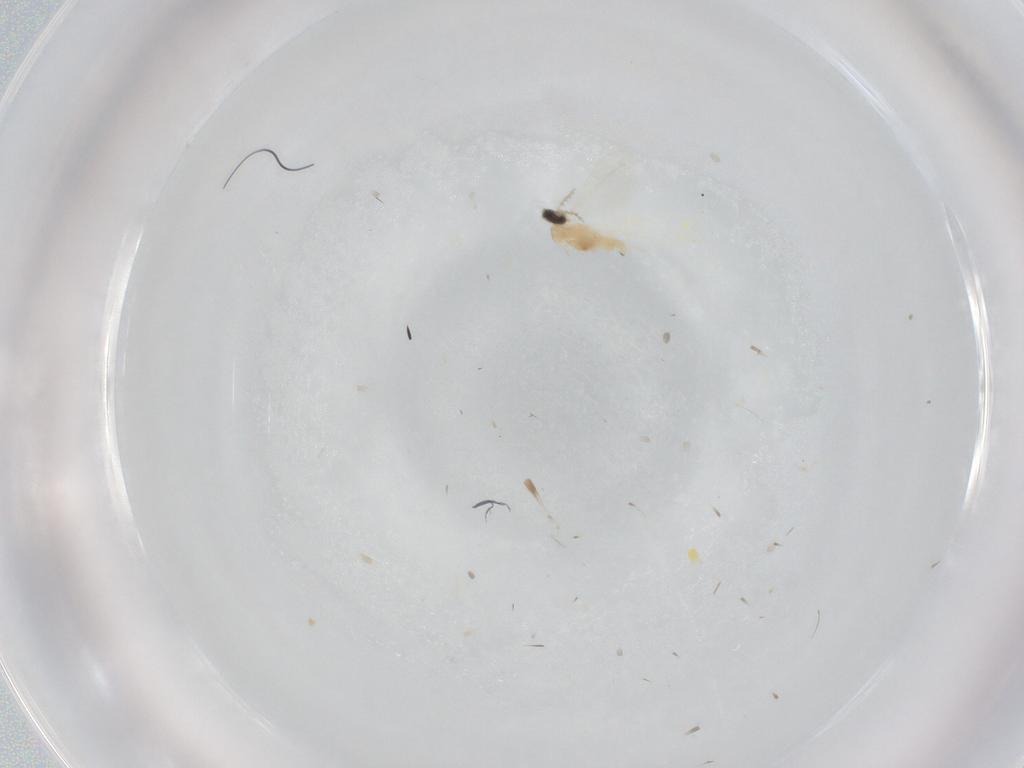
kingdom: Animalia
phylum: Arthropoda
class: Insecta
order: Diptera
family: Cecidomyiidae
